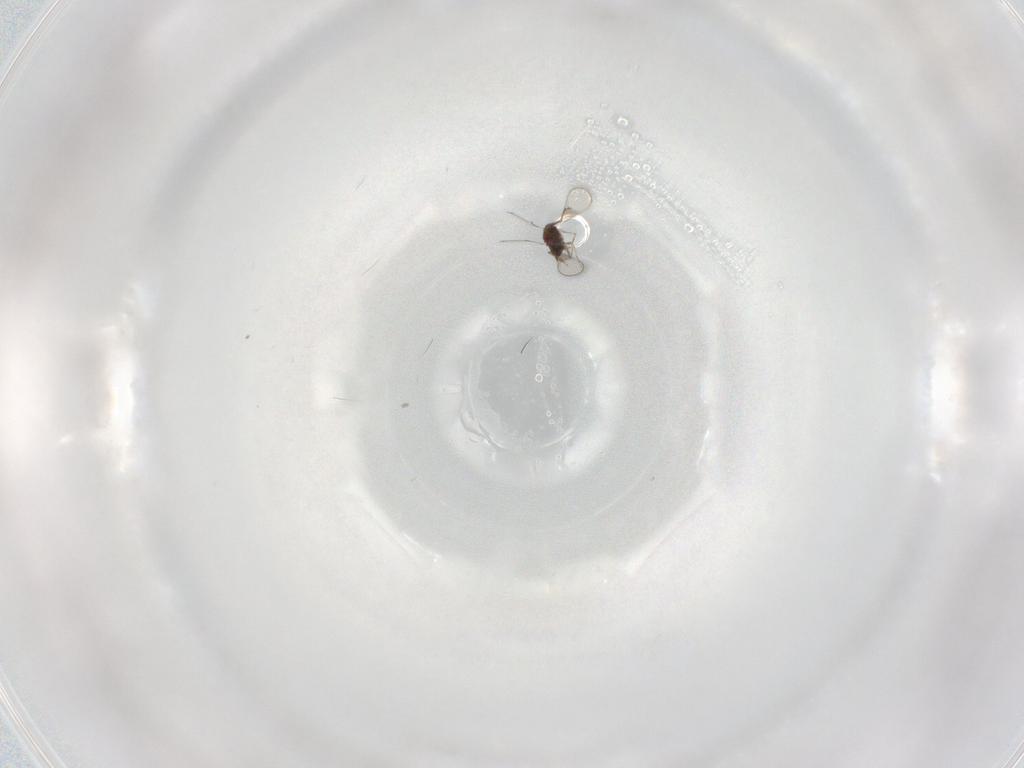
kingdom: Animalia
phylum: Arthropoda
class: Insecta
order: Hymenoptera
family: Trichogrammatidae
